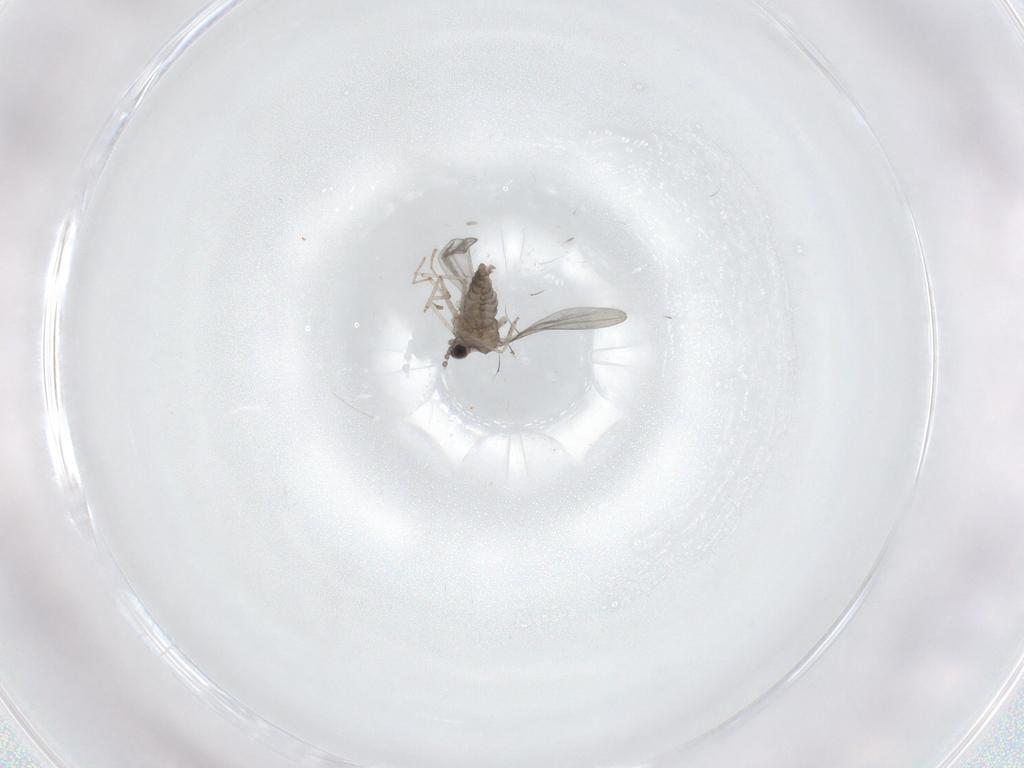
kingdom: Animalia
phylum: Arthropoda
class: Insecta
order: Diptera
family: Cecidomyiidae
